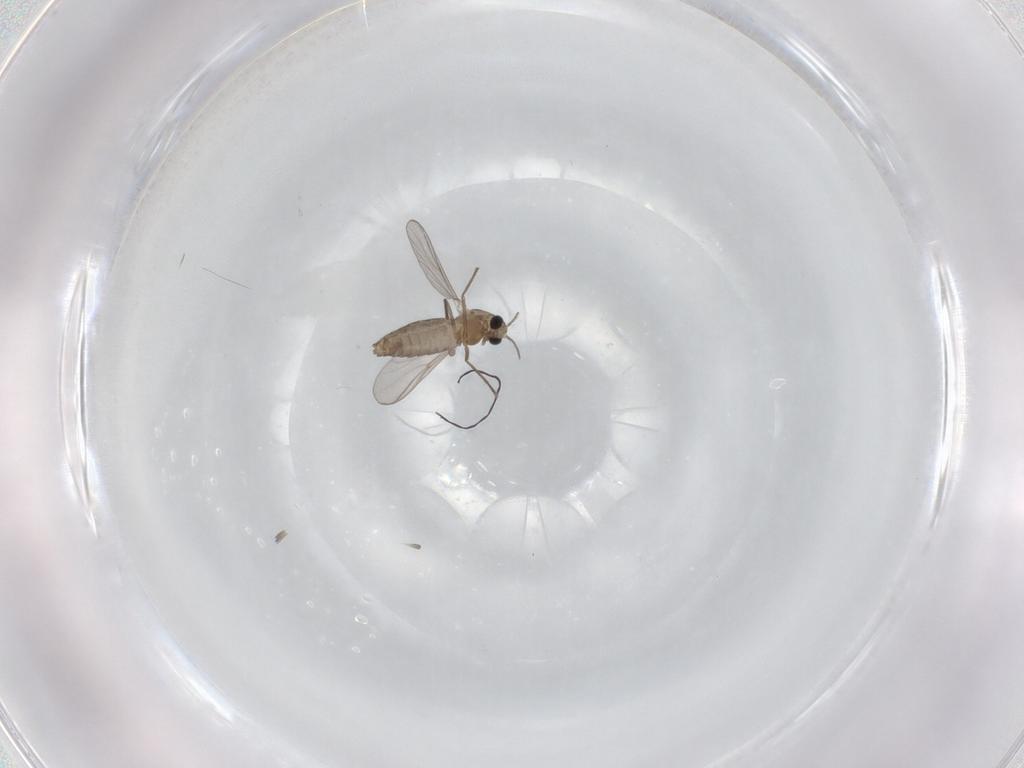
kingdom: Animalia
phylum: Arthropoda
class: Insecta
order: Diptera
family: Chironomidae
